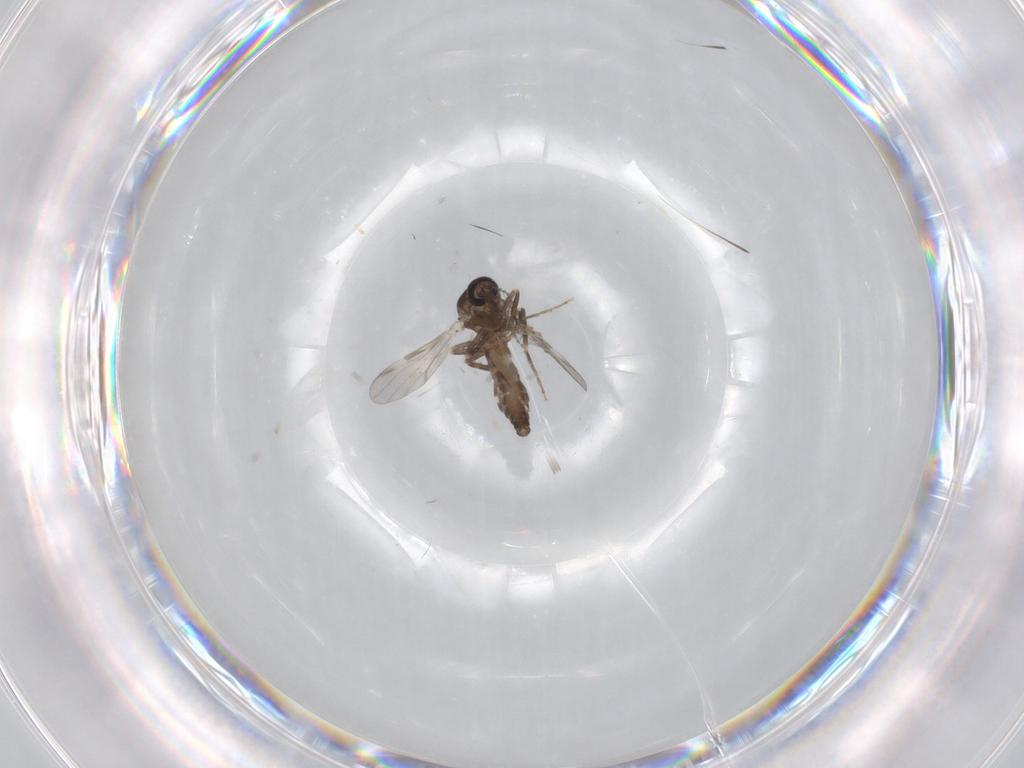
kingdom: Animalia
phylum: Arthropoda
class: Insecta
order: Diptera
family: Ceratopogonidae
